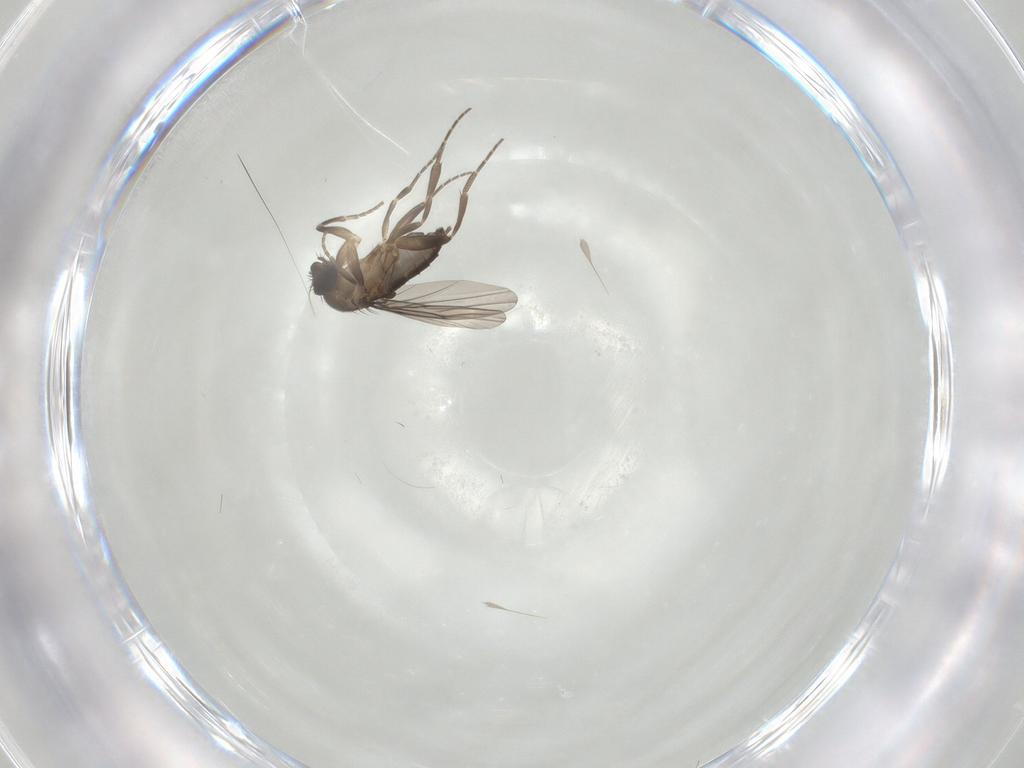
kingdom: Animalia
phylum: Arthropoda
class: Insecta
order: Diptera
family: Phoridae
